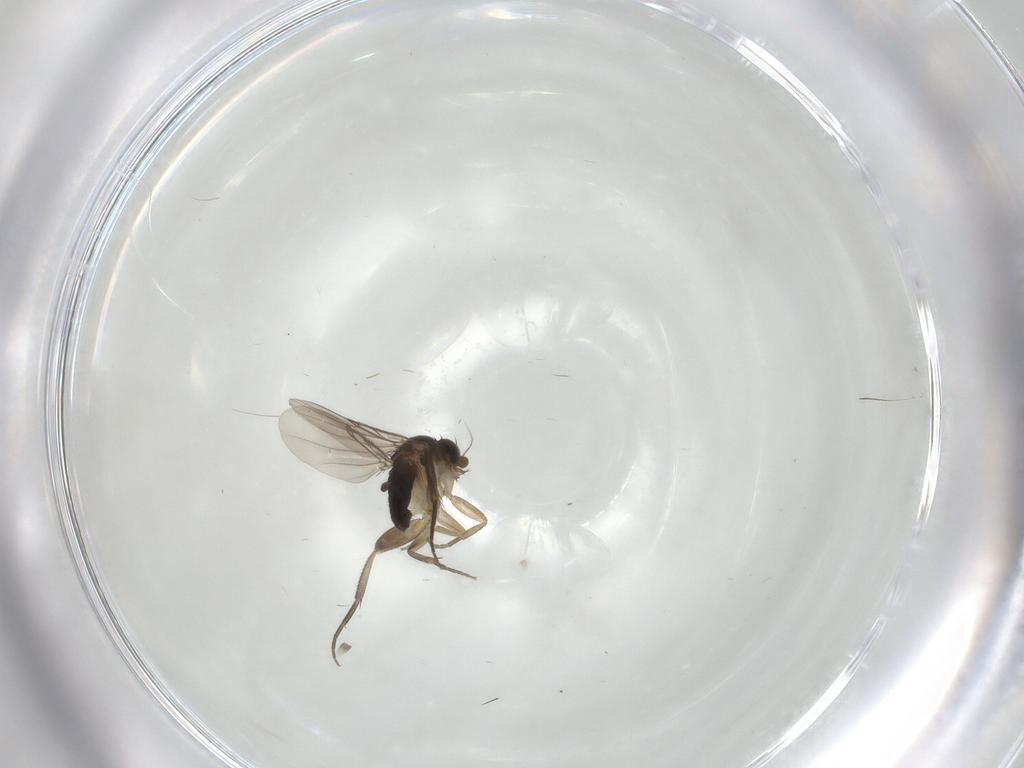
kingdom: Animalia
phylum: Arthropoda
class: Insecta
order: Diptera
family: Phoridae
